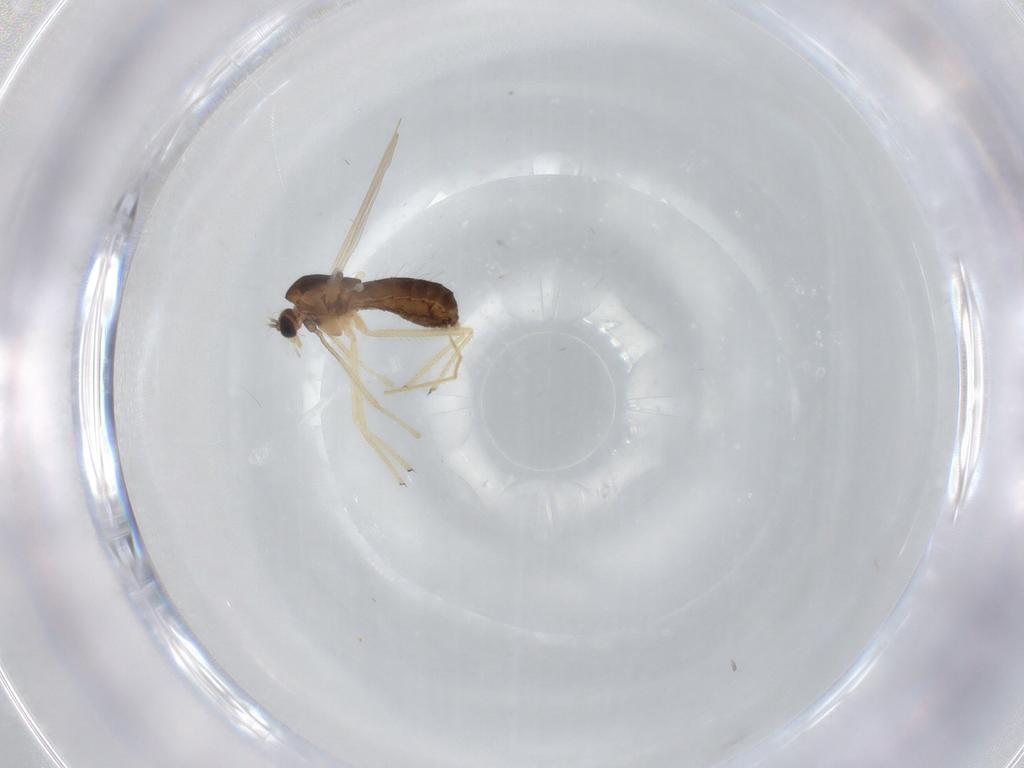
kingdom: Animalia
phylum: Arthropoda
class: Insecta
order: Diptera
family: Chironomidae
